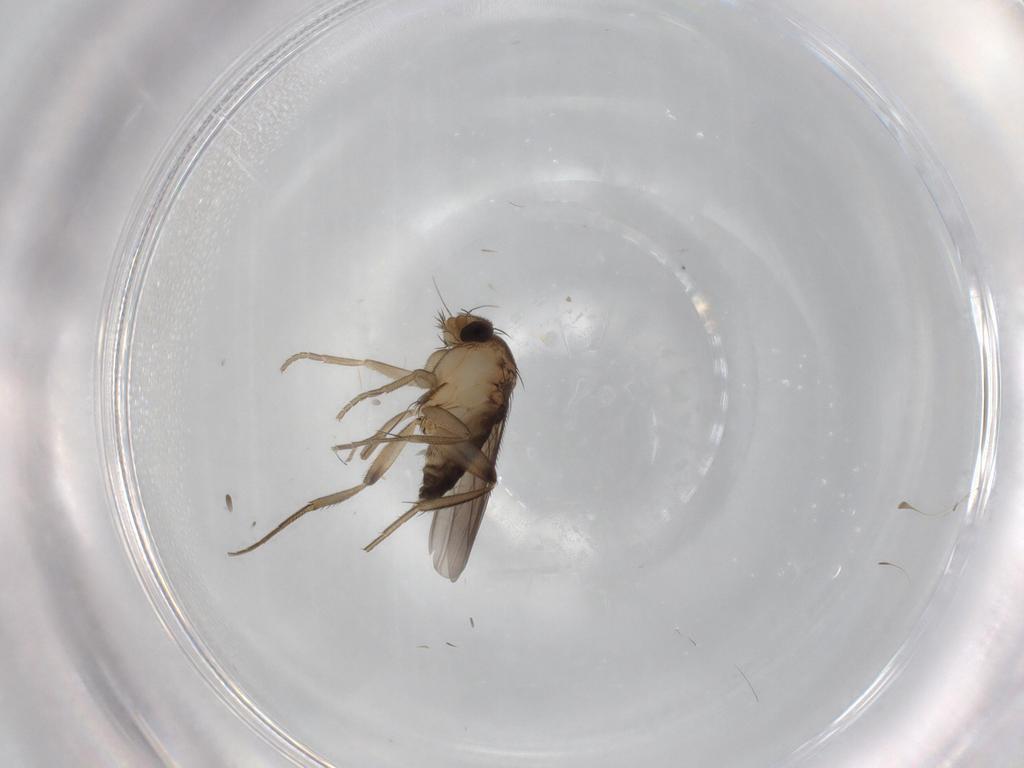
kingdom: Animalia
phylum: Arthropoda
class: Insecta
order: Diptera
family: Phoridae
